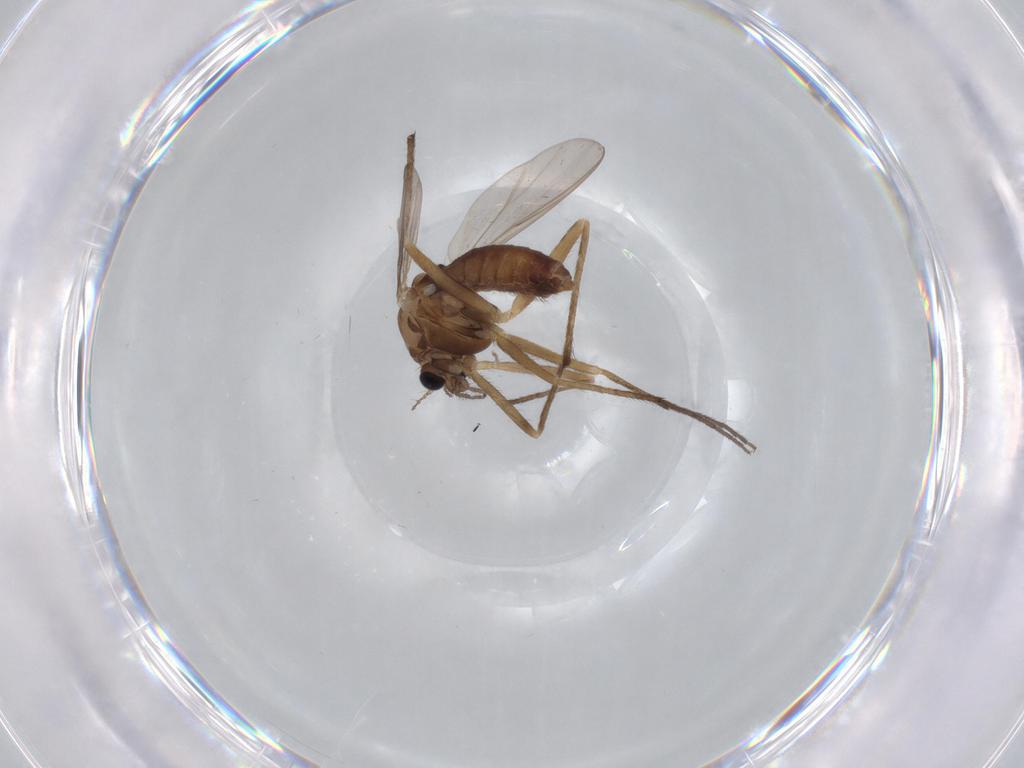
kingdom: Animalia
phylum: Arthropoda
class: Insecta
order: Diptera
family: Chironomidae
